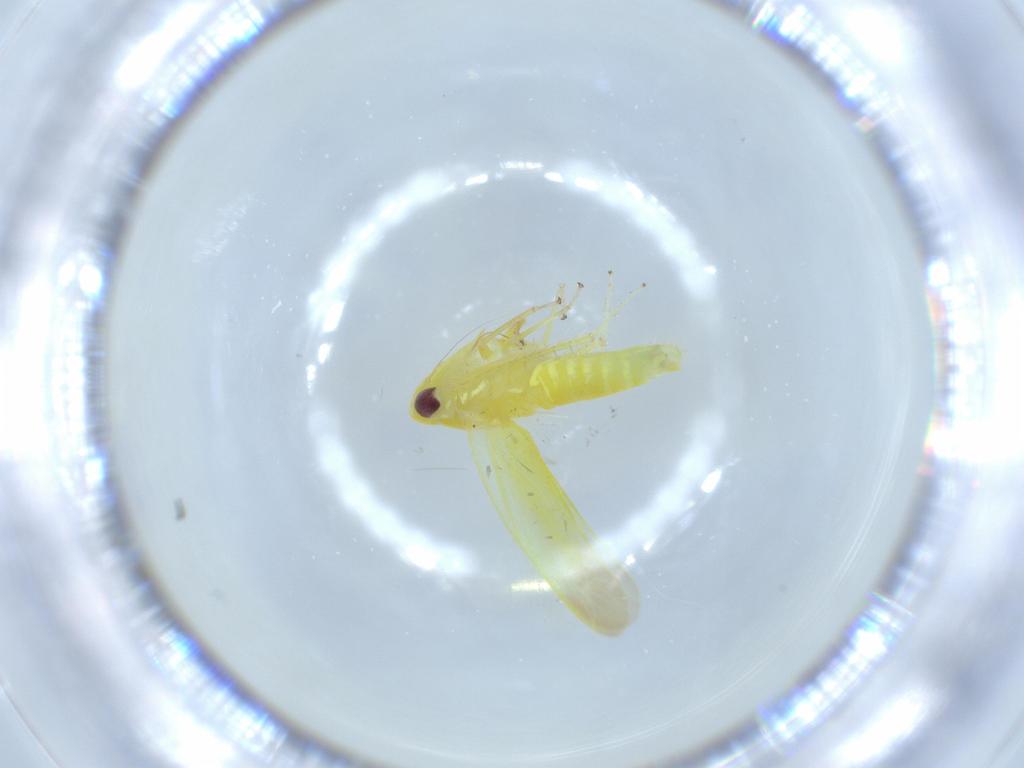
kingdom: Animalia
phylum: Arthropoda
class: Insecta
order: Hemiptera
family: Cicadellidae
